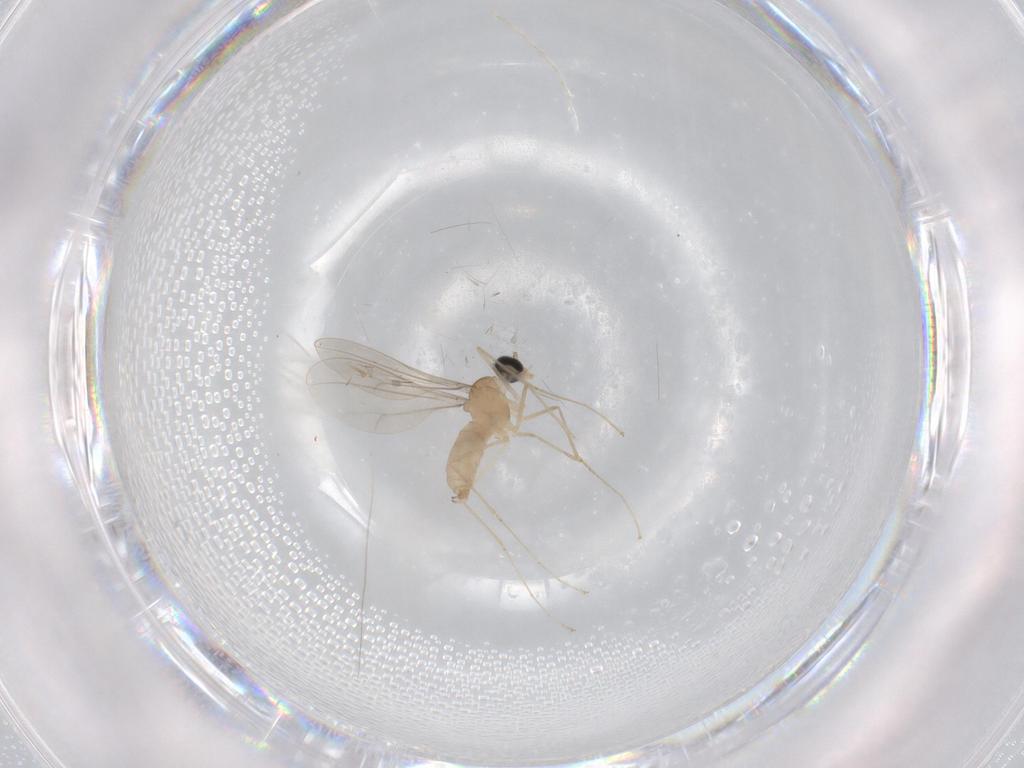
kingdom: Animalia
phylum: Arthropoda
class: Insecta
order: Diptera
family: Cecidomyiidae
